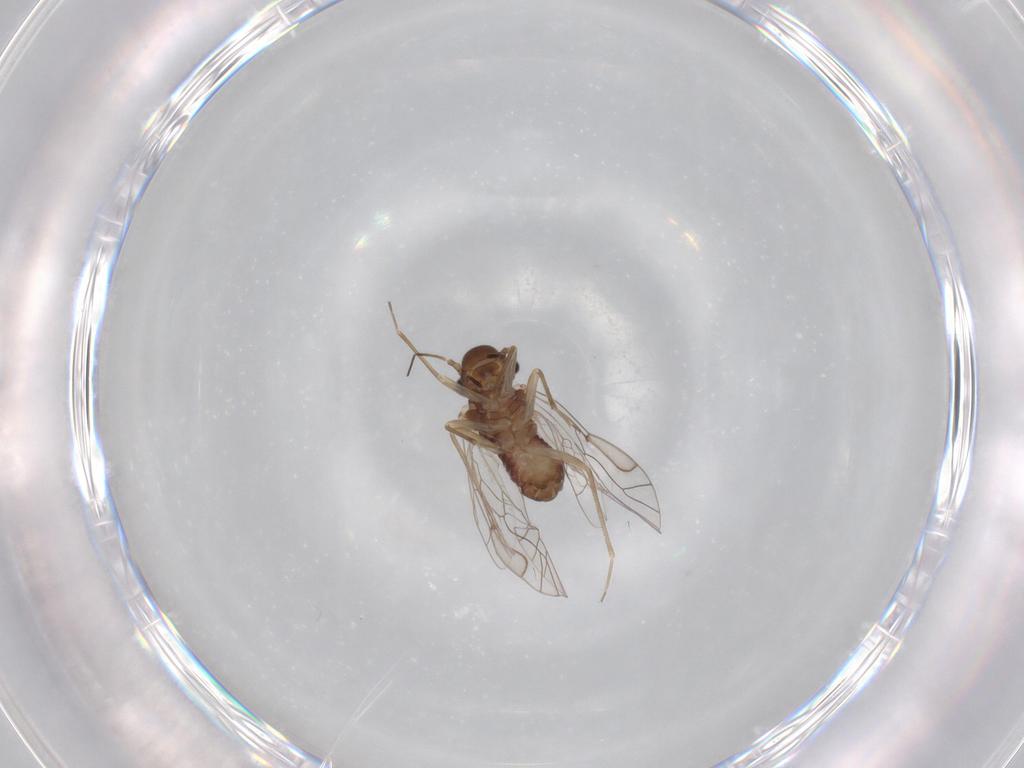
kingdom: Animalia
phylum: Arthropoda
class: Insecta
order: Psocodea
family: Lachesillidae
